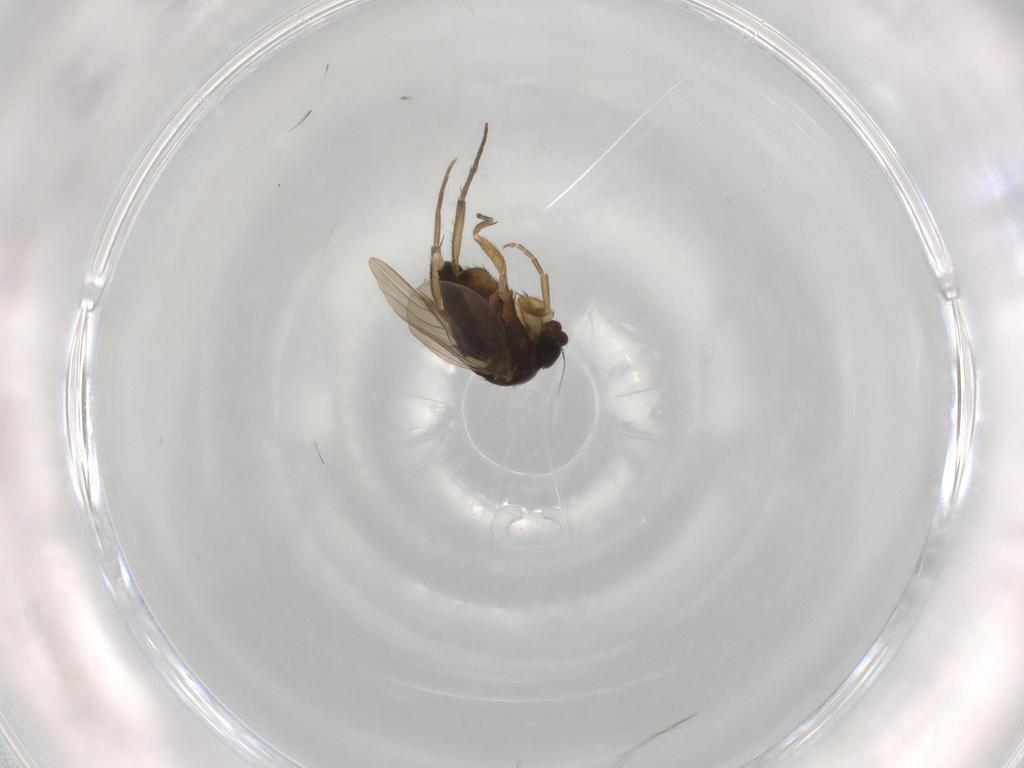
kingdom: Animalia
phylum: Arthropoda
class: Insecta
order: Diptera
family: Phoridae
